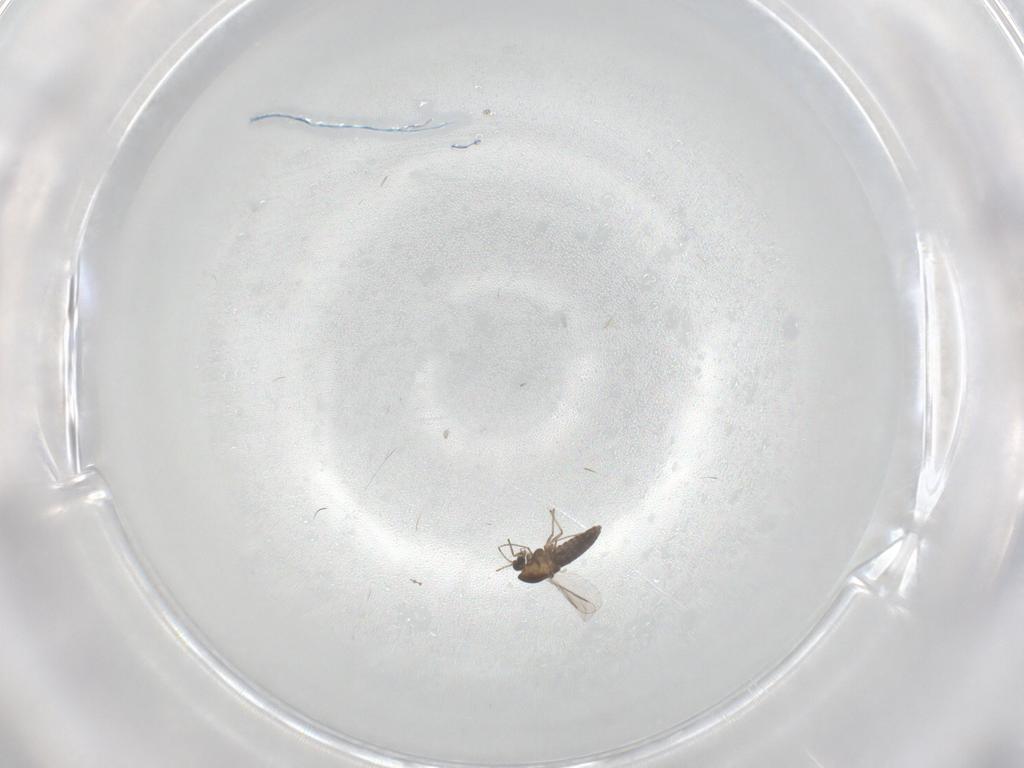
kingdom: Animalia
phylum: Arthropoda
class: Insecta
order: Diptera
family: Chironomidae
